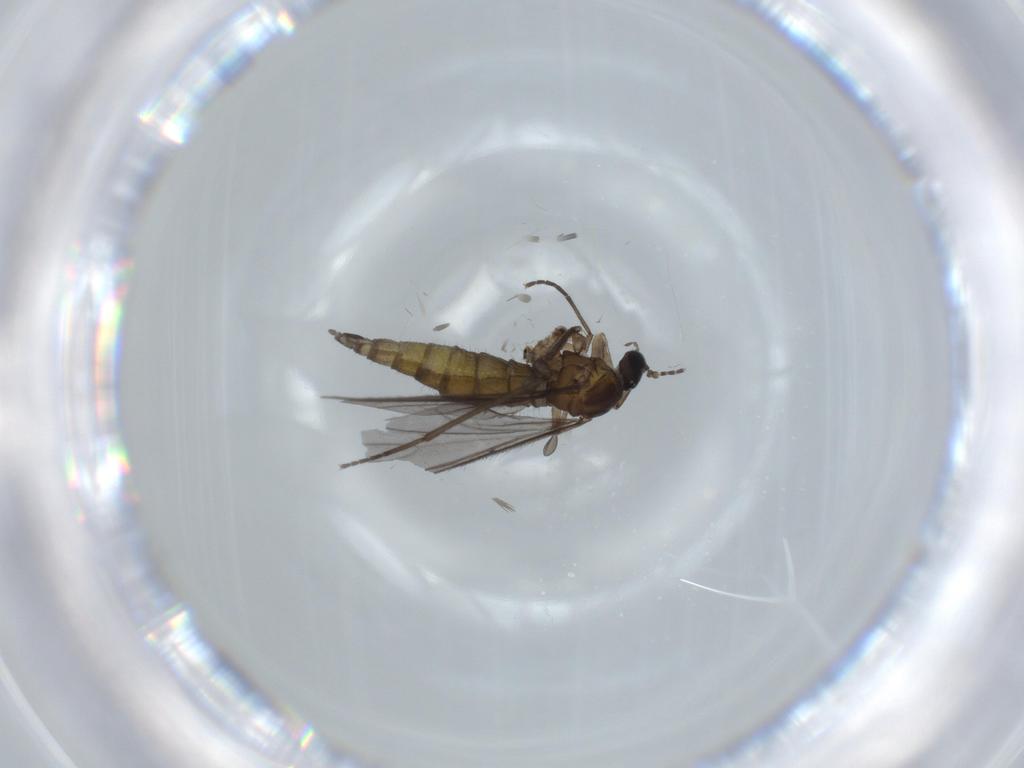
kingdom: Animalia
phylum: Arthropoda
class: Insecta
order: Diptera
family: Sciaridae
